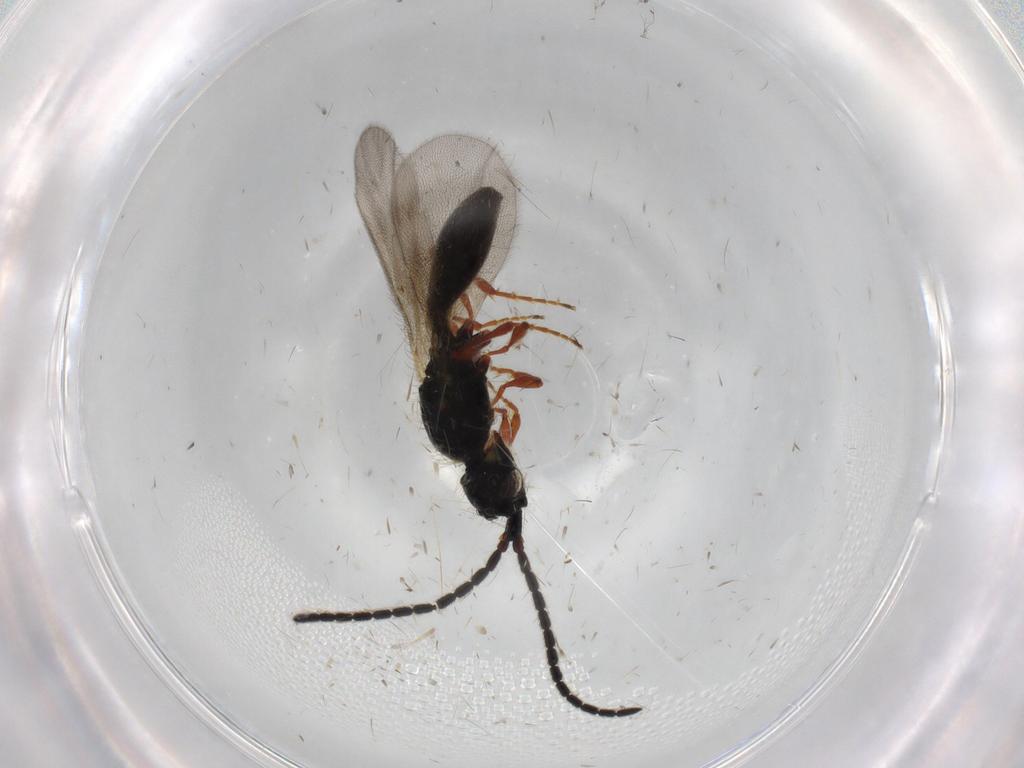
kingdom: Animalia
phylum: Arthropoda
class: Insecta
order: Hymenoptera
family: Diapriidae
